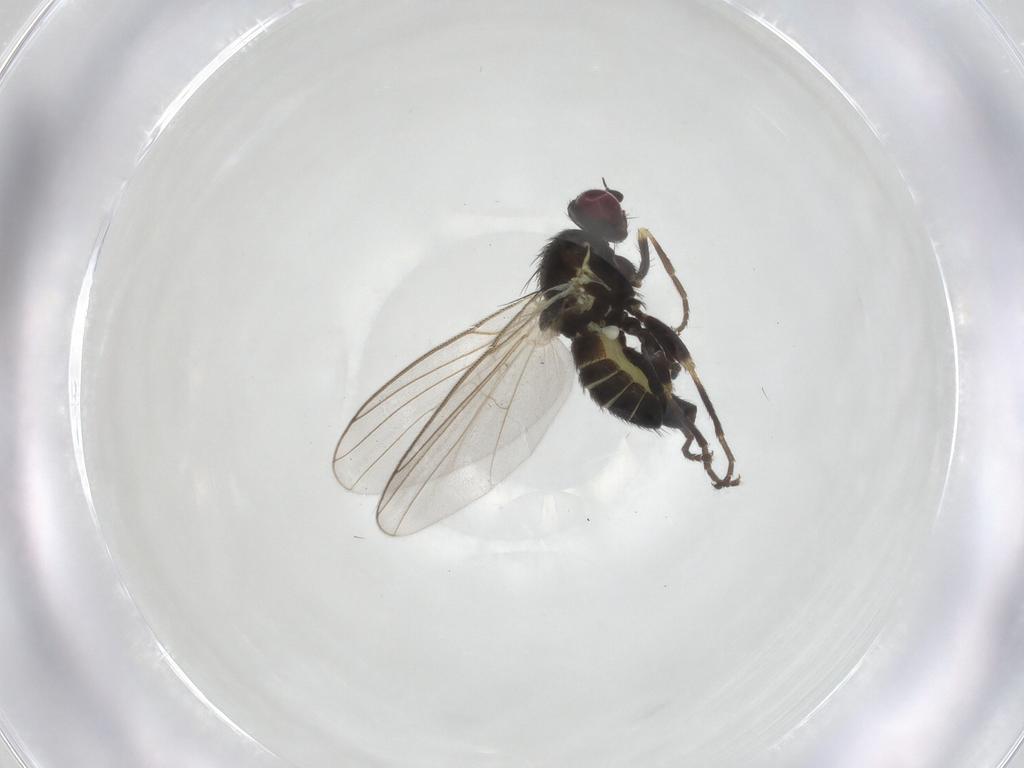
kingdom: Animalia
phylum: Arthropoda
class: Insecta
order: Diptera
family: Chironomidae
